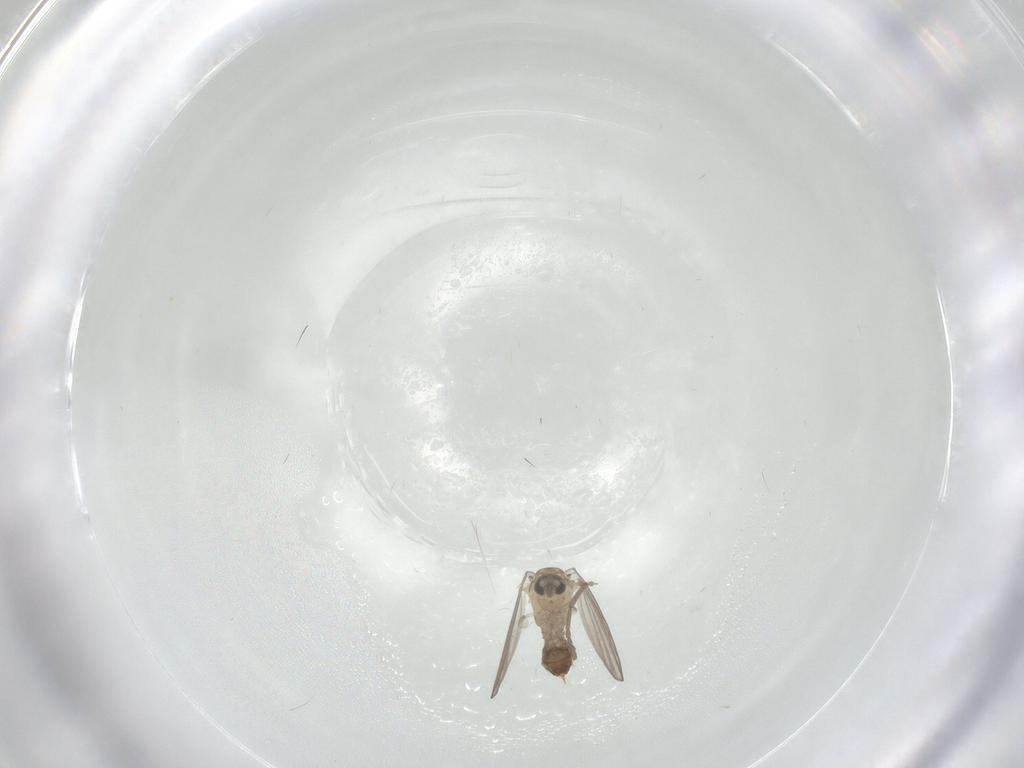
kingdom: Animalia
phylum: Arthropoda
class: Insecta
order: Diptera
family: Psychodidae
